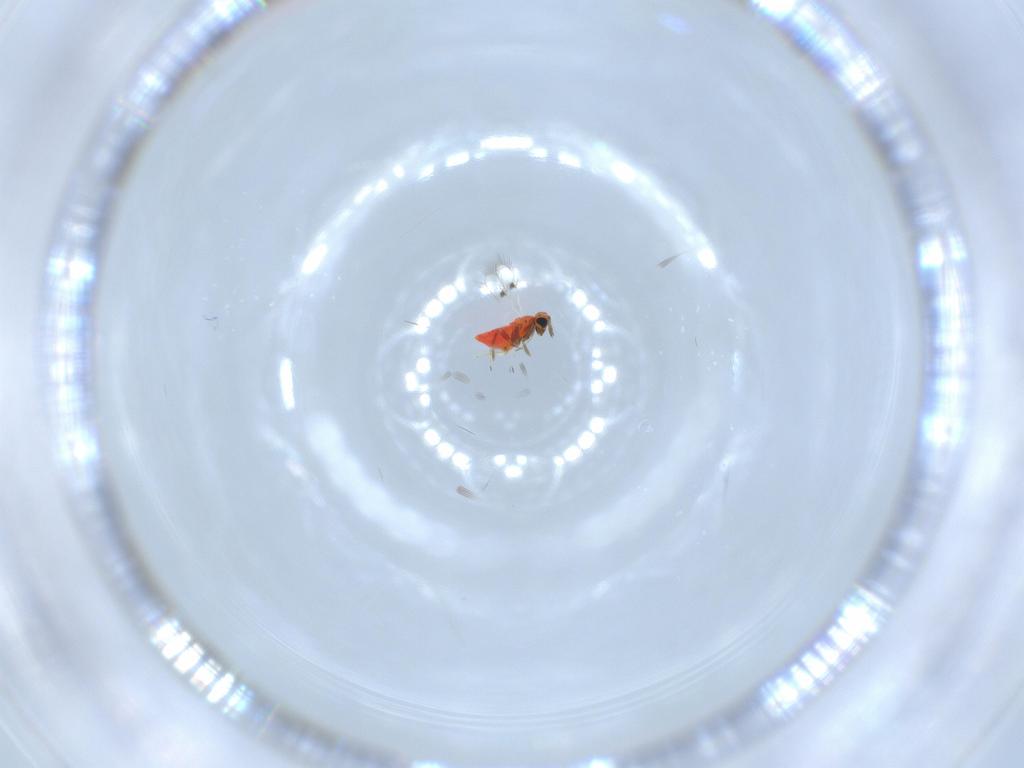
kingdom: Animalia
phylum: Arthropoda
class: Insecta
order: Hymenoptera
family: Trichogrammatidae
